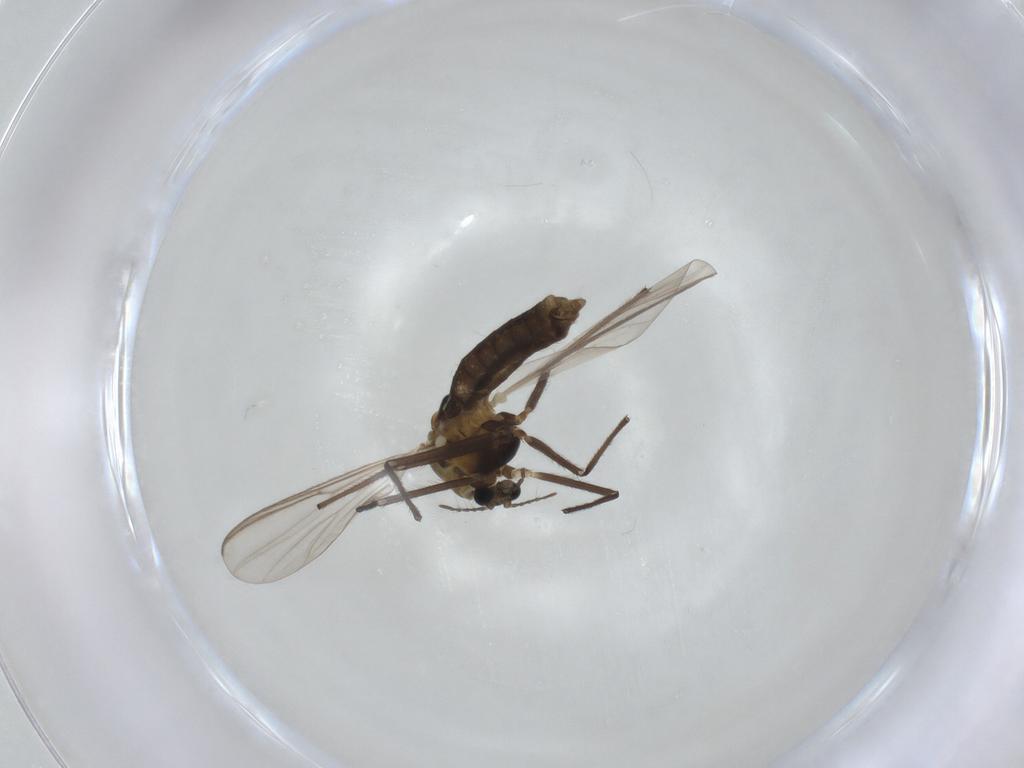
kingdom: Animalia
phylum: Arthropoda
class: Insecta
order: Diptera
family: Chironomidae
